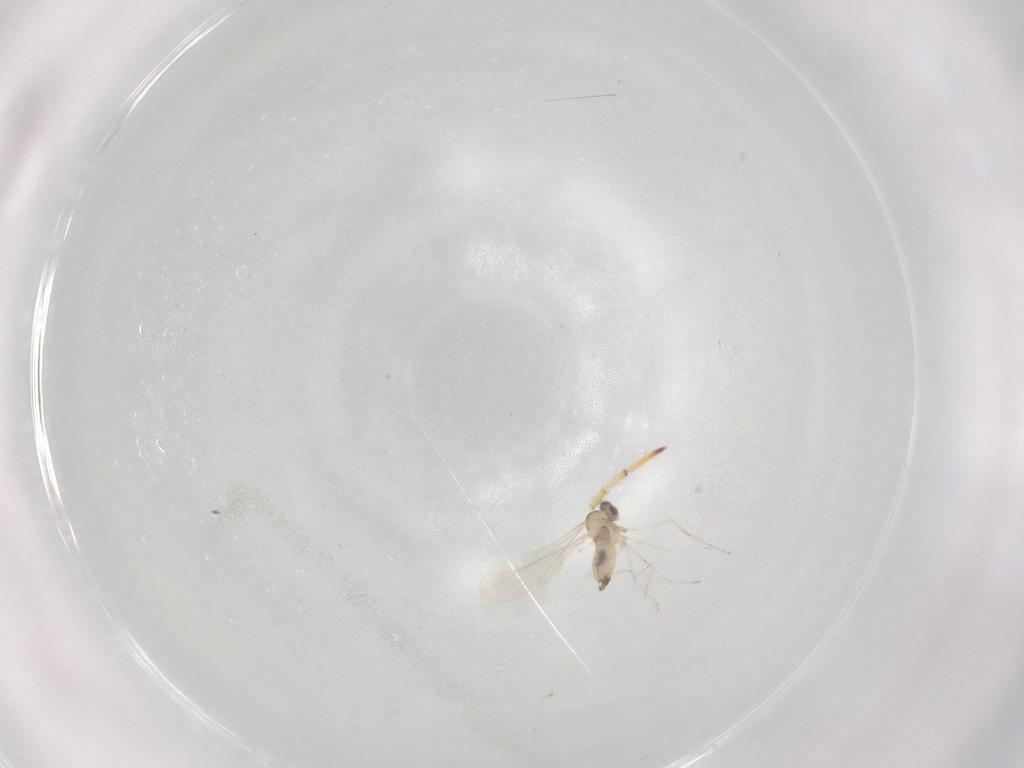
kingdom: Animalia
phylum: Arthropoda
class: Insecta
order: Diptera
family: Cecidomyiidae
